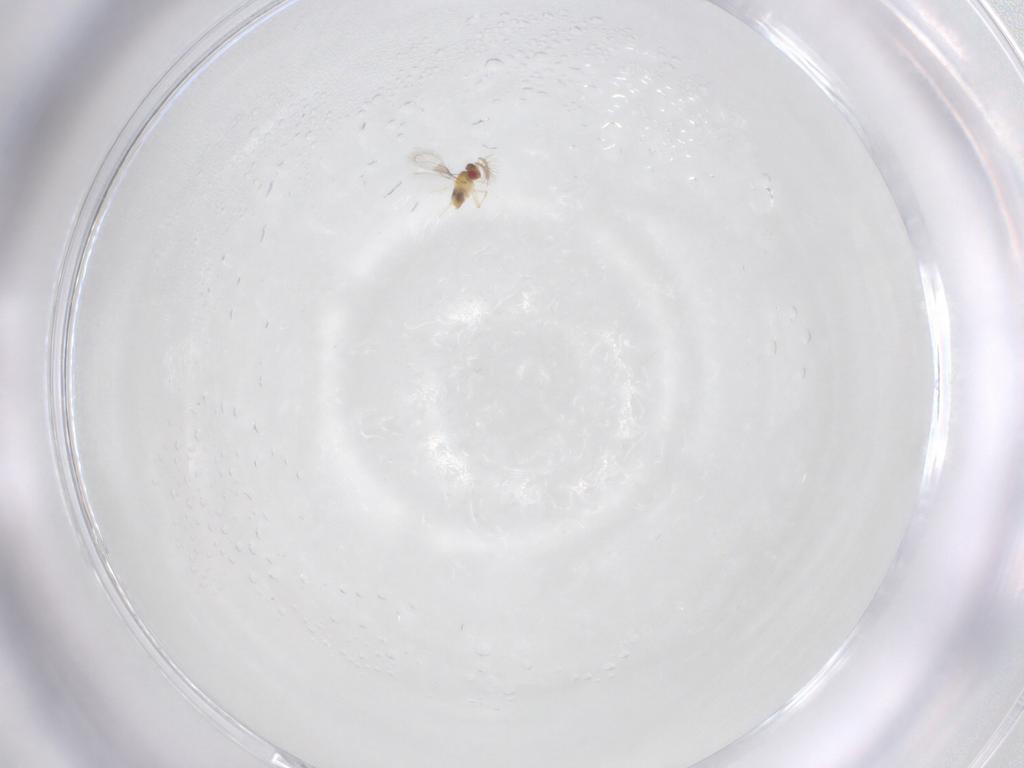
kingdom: Animalia
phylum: Arthropoda
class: Insecta
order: Hymenoptera
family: Trichogrammatidae
